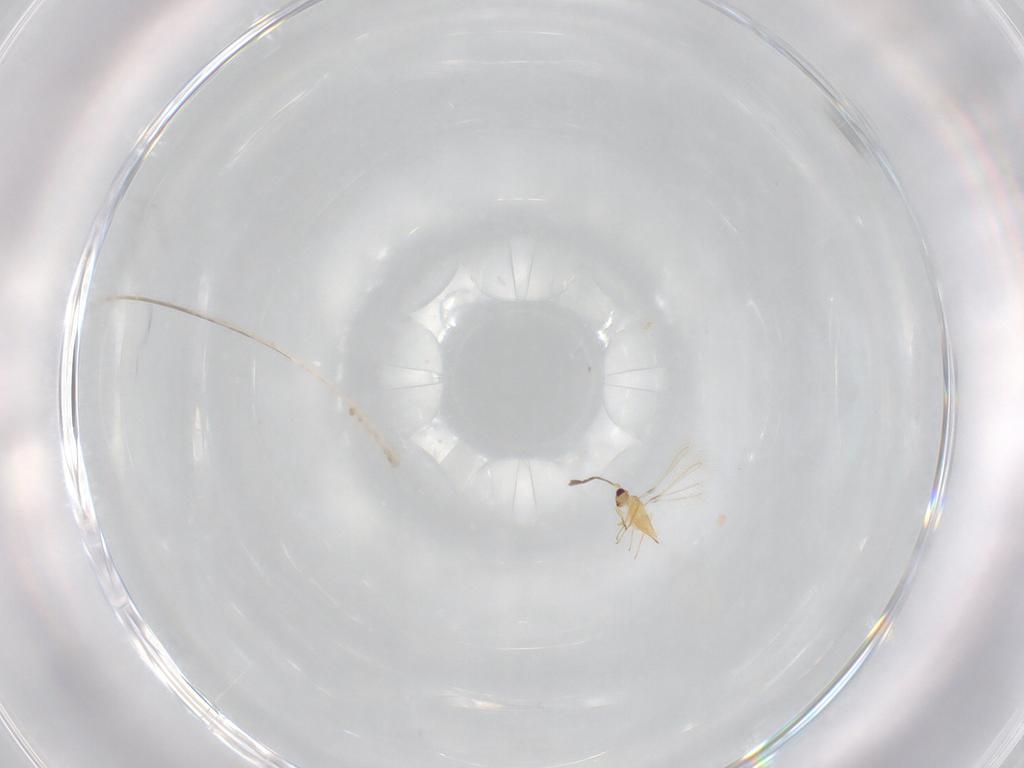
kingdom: Animalia
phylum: Arthropoda
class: Insecta
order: Hymenoptera
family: Mymaridae
